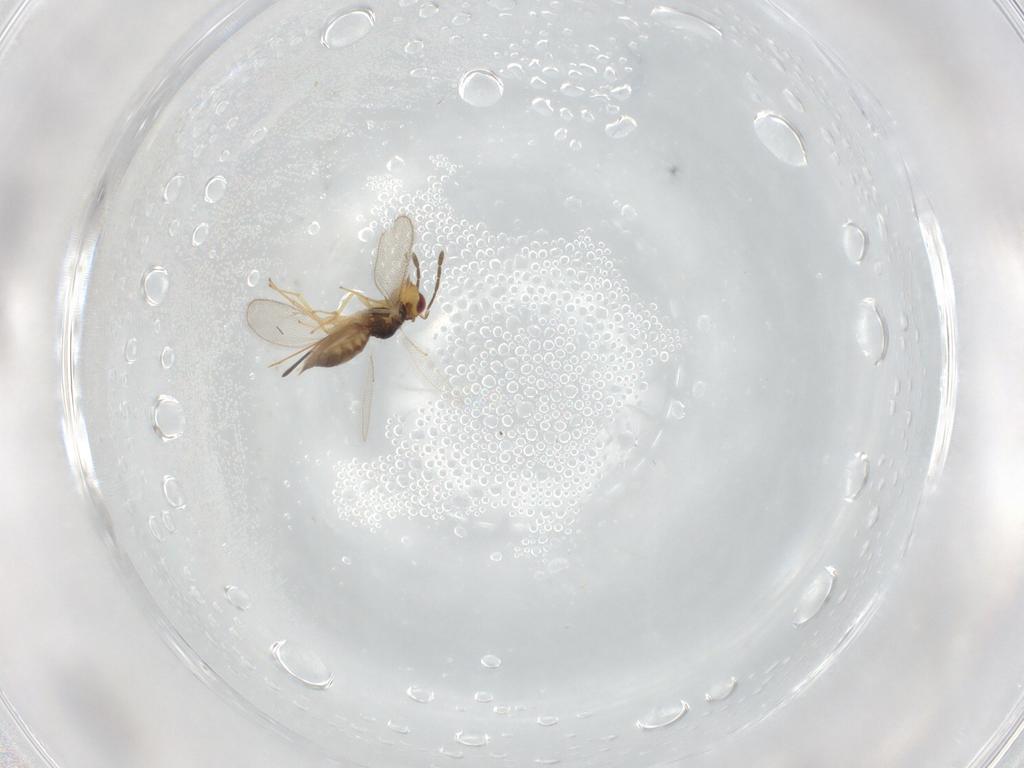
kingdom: Animalia
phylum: Arthropoda
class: Insecta
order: Hymenoptera
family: Eulophidae
